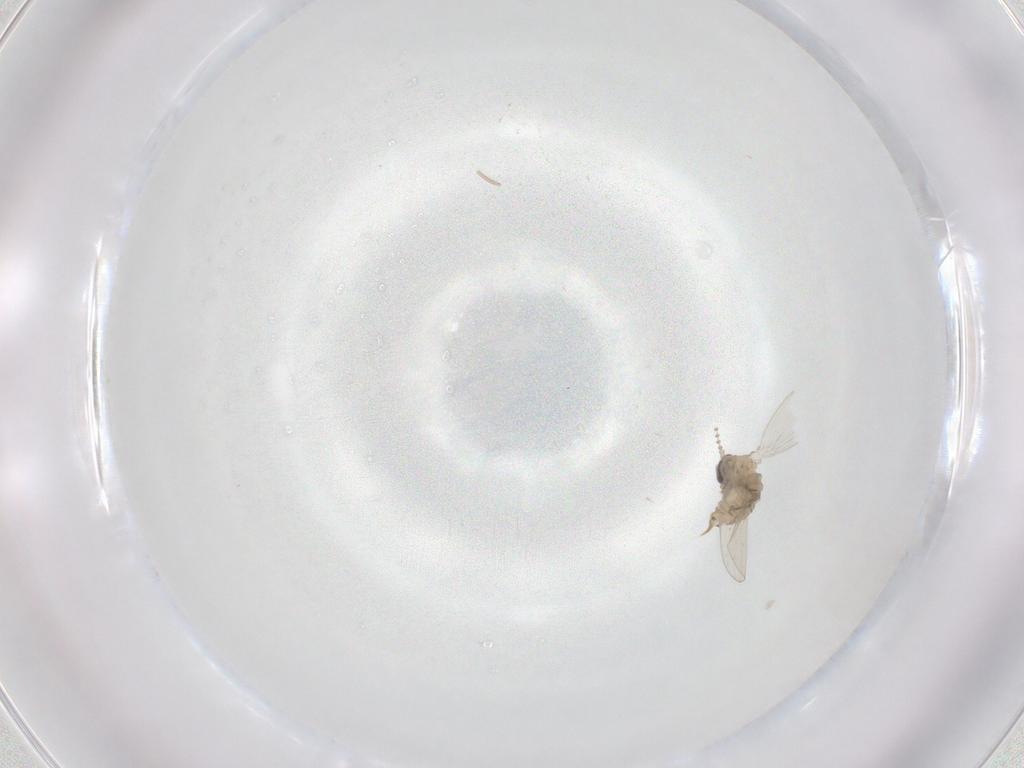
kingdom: Animalia
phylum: Arthropoda
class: Insecta
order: Diptera
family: Psychodidae
